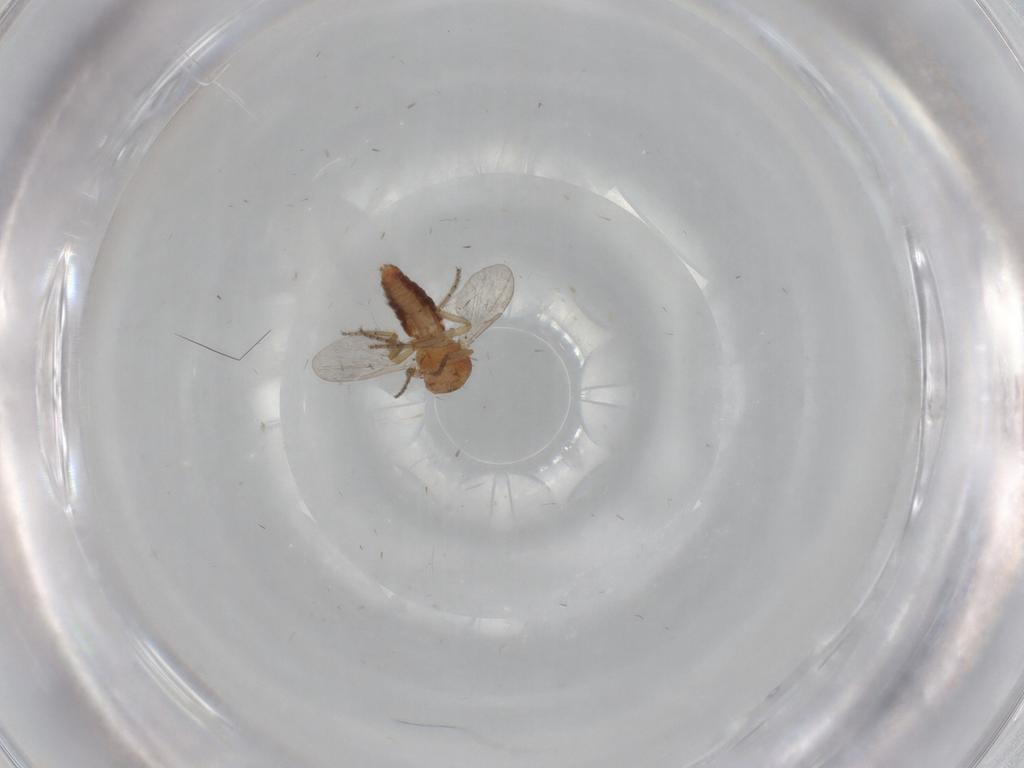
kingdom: Animalia
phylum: Arthropoda
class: Insecta
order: Diptera
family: Ceratopogonidae
